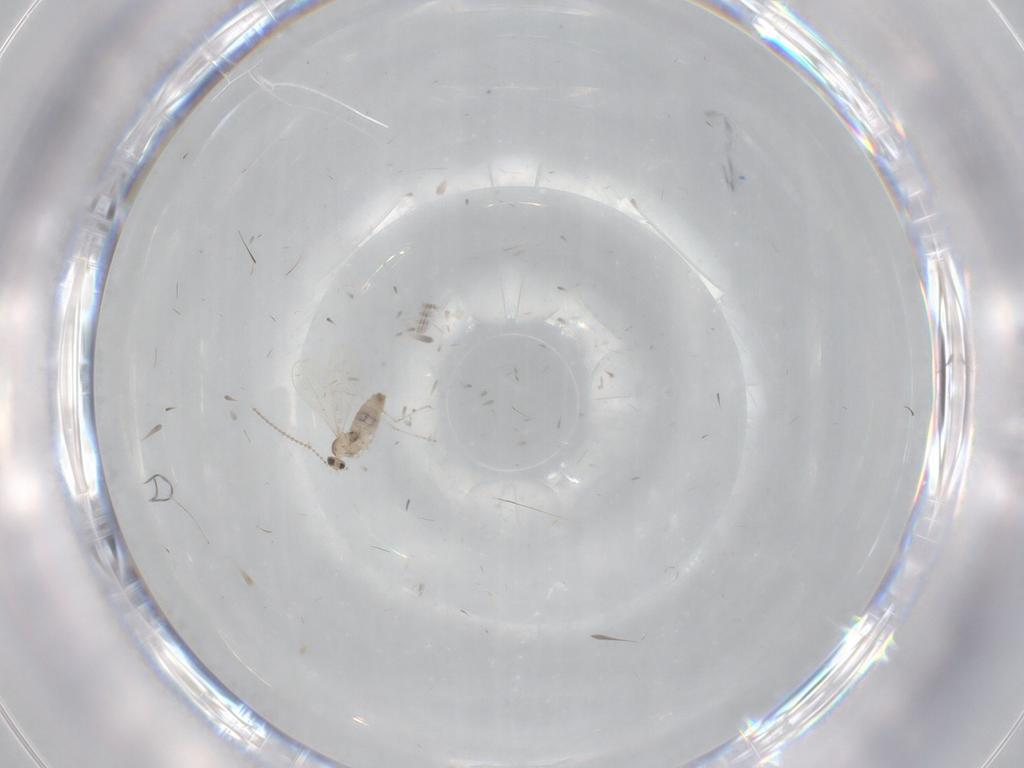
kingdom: Animalia
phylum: Arthropoda
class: Insecta
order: Diptera
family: Cecidomyiidae
